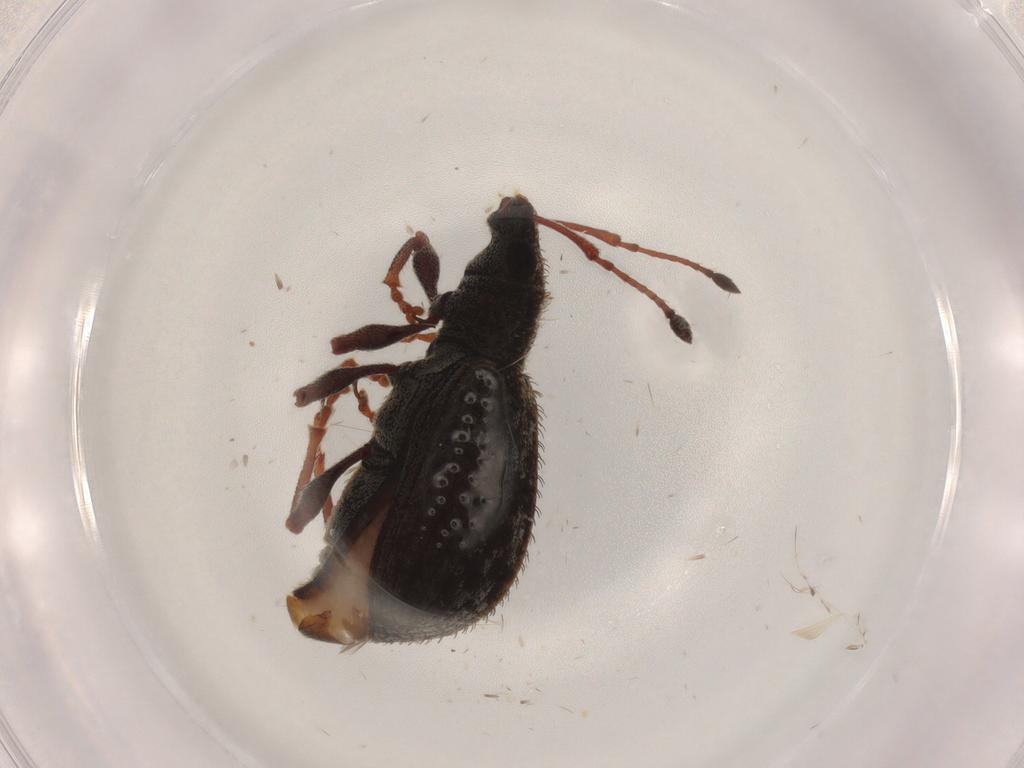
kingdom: Animalia
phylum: Arthropoda
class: Insecta
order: Coleoptera
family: Curculionidae
